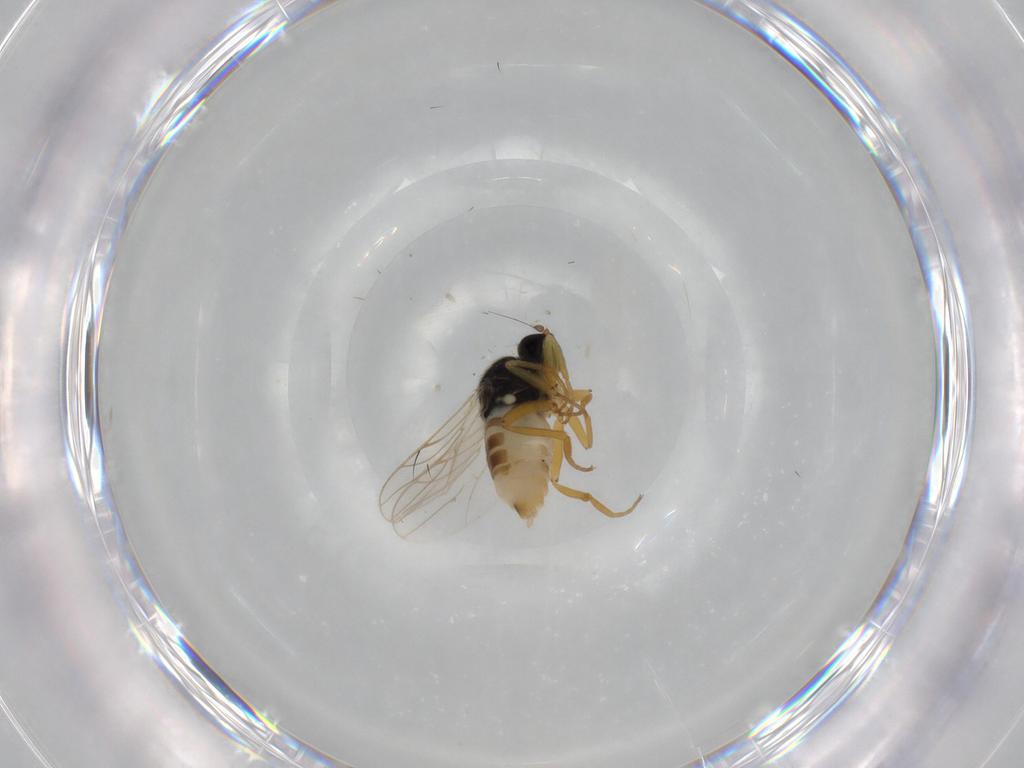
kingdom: Animalia
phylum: Arthropoda
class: Insecta
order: Diptera
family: Hybotidae
